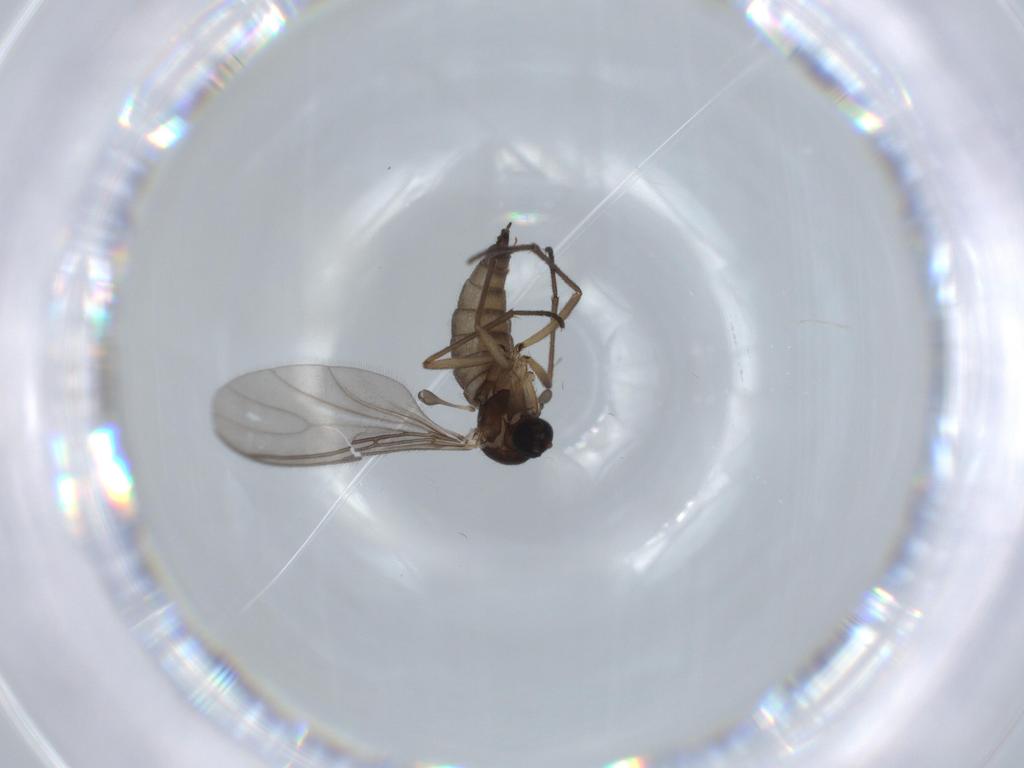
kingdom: Animalia
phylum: Arthropoda
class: Insecta
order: Diptera
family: Sciaridae
